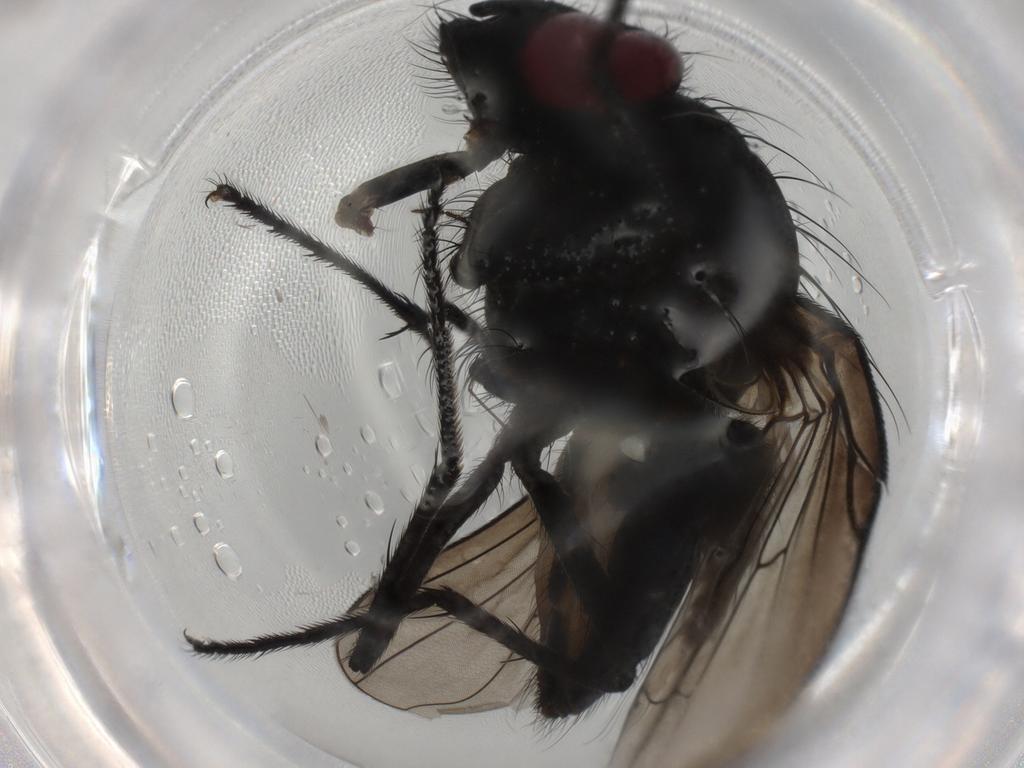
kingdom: Animalia
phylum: Arthropoda
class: Insecta
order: Diptera
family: Muscidae
